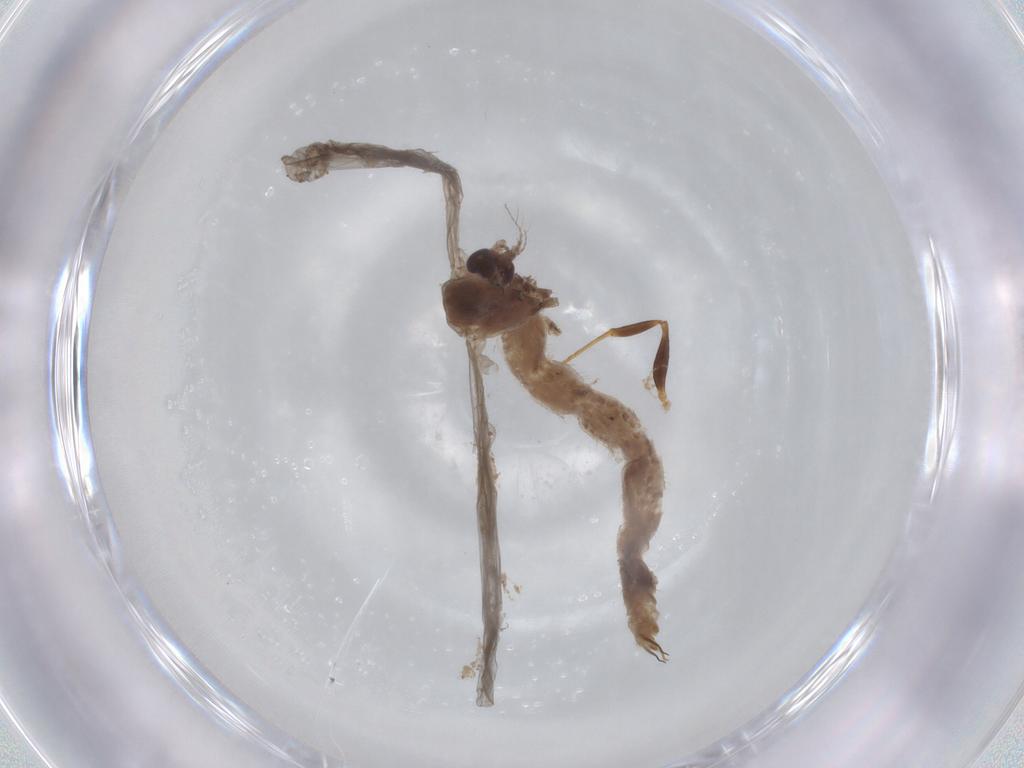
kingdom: Animalia
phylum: Arthropoda
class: Insecta
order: Diptera
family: Limoniidae
